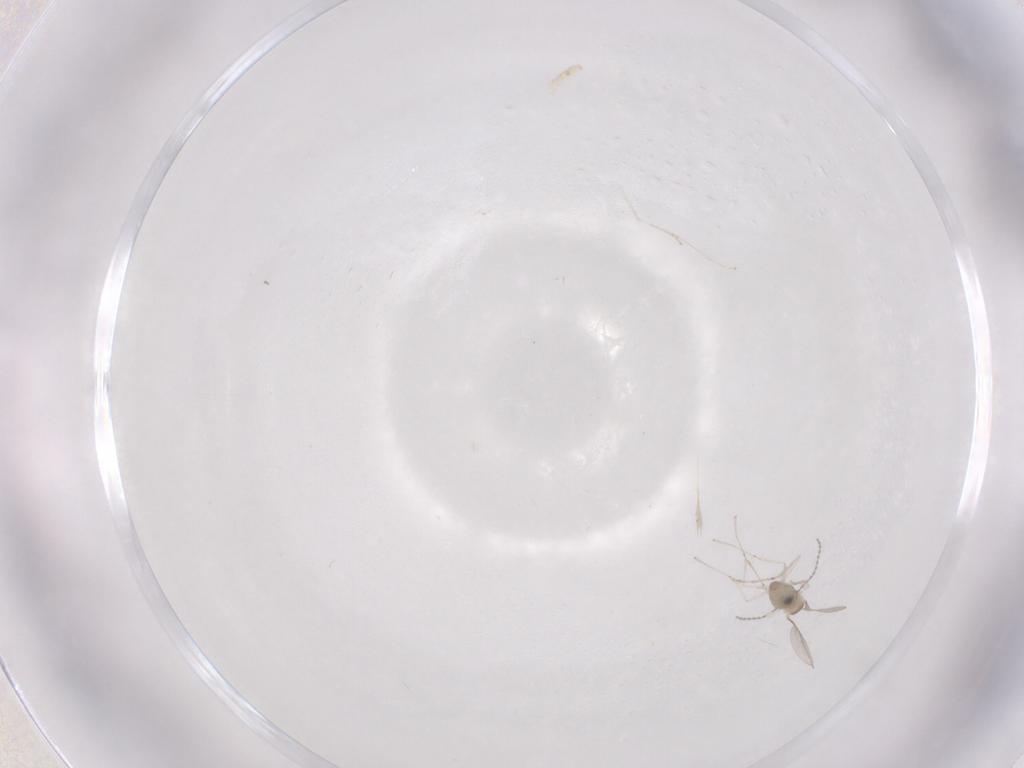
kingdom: Animalia
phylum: Arthropoda
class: Insecta
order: Diptera
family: Cecidomyiidae
